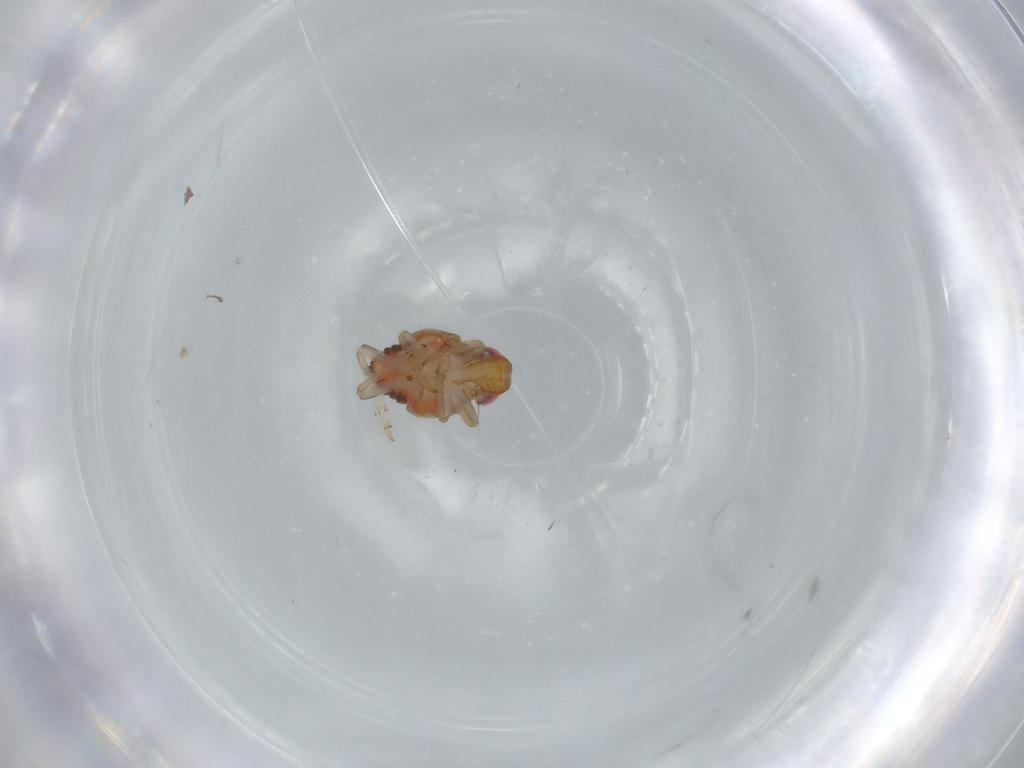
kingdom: Animalia
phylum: Arthropoda
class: Insecta
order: Hemiptera
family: Issidae
